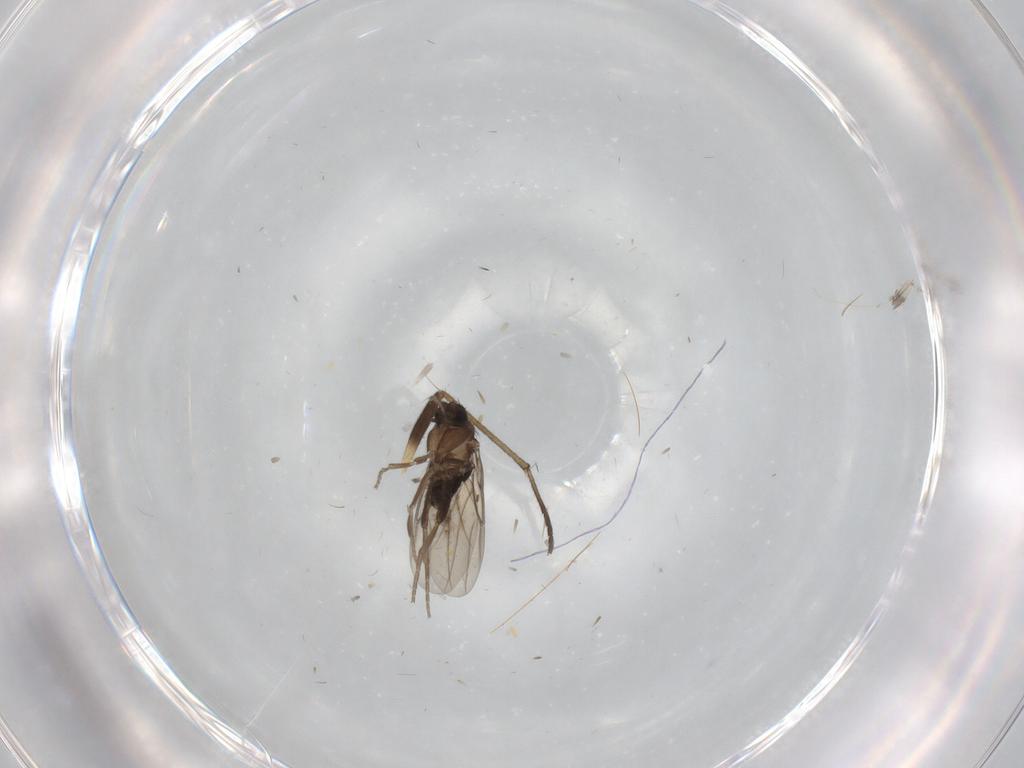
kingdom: Animalia
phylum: Arthropoda
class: Insecta
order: Diptera
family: Phoridae
